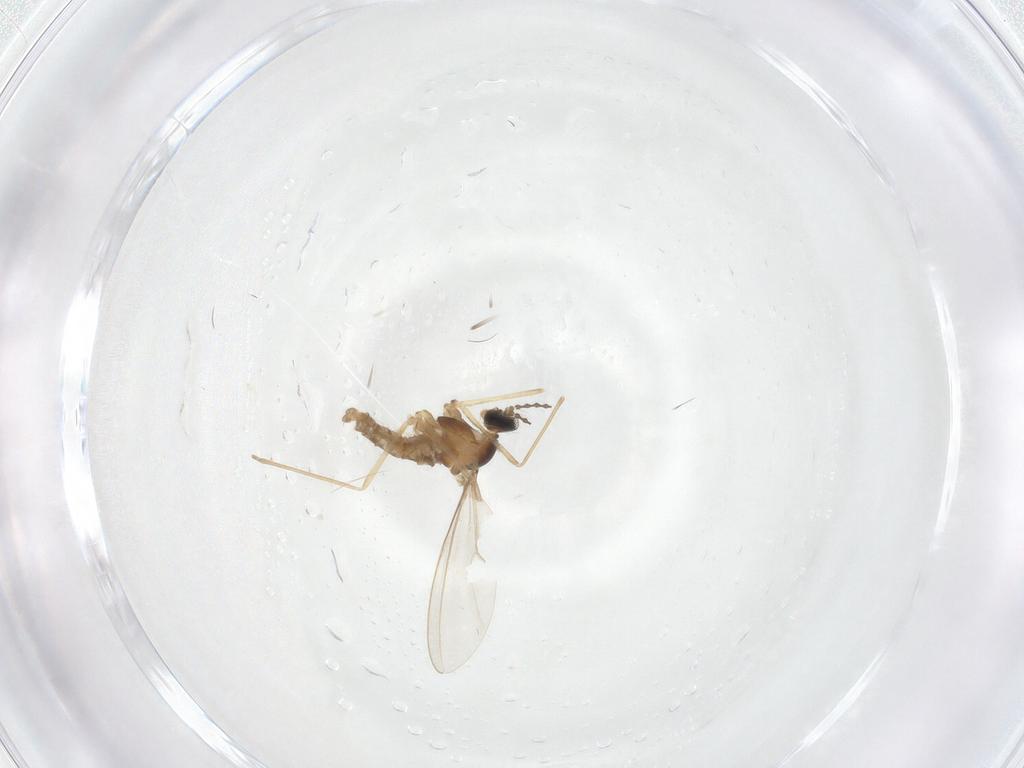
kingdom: Animalia
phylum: Arthropoda
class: Insecta
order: Diptera
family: Cecidomyiidae
